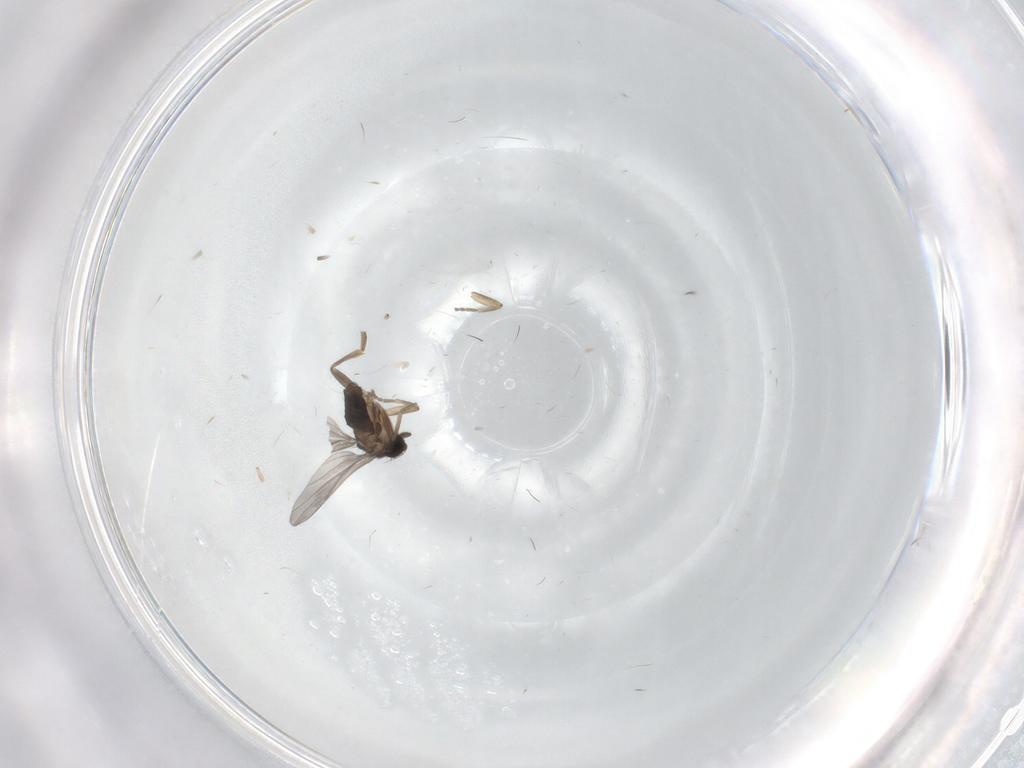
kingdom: Animalia
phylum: Arthropoda
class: Insecta
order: Diptera
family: Chironomidae
